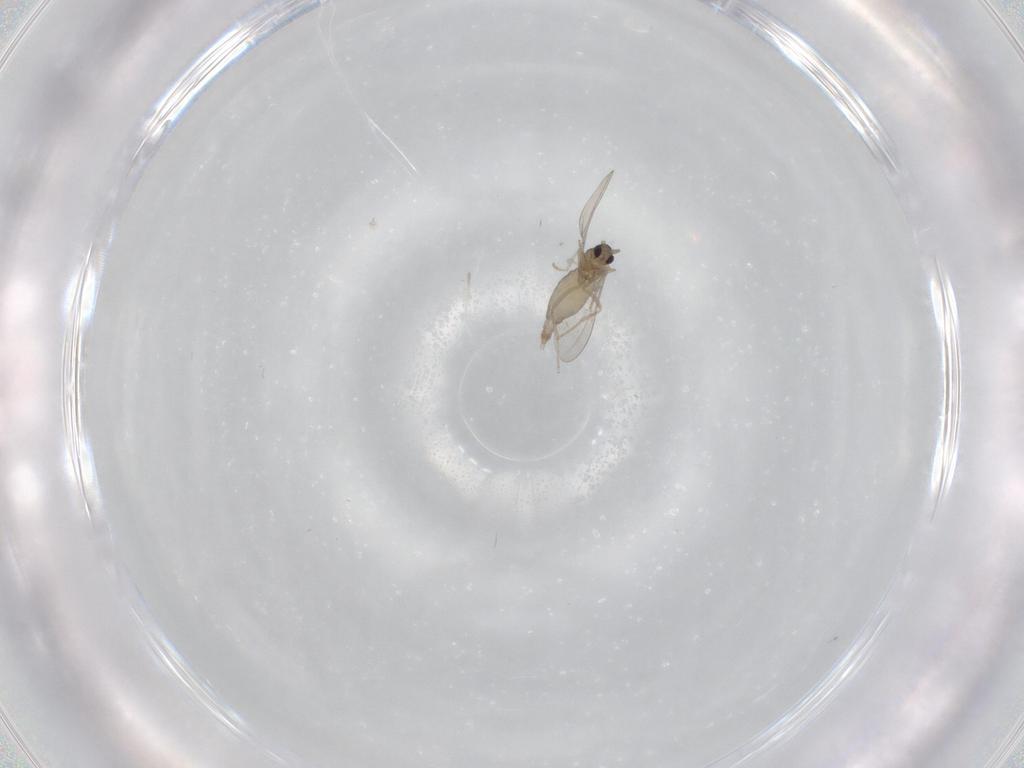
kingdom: Animalia
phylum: Arthropoda
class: Insecta
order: Diptera
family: Cecidomyiidae
